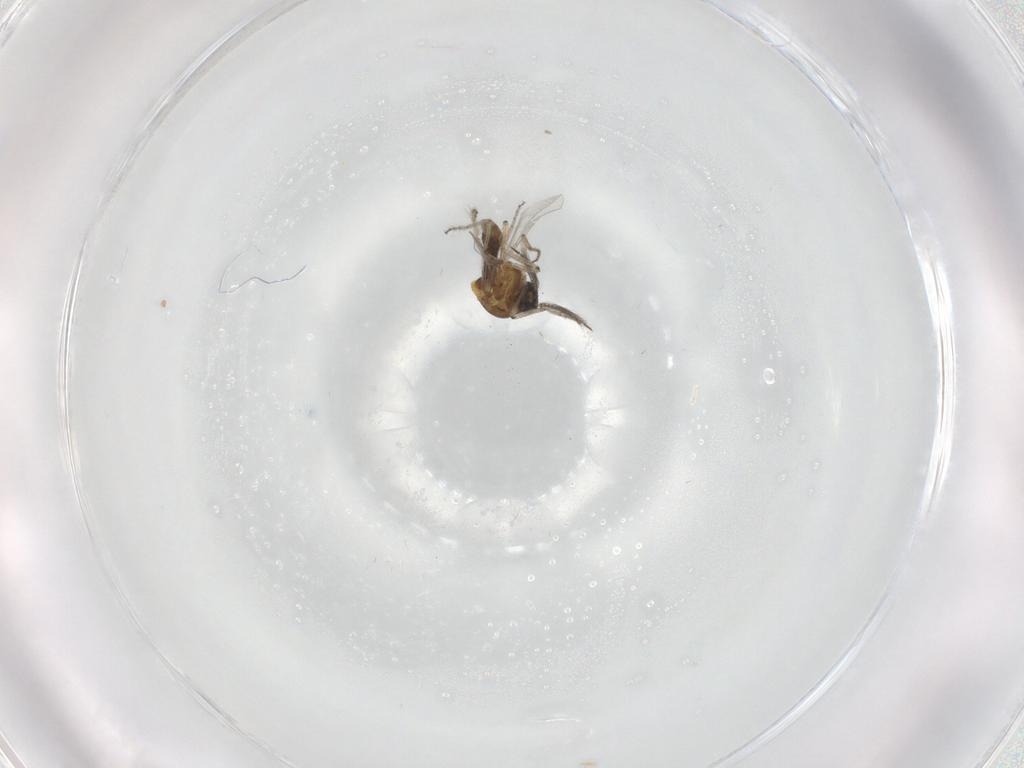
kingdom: Animalia
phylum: Arthropoda
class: Insecta
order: Diptera
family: Ceratopogonidae
